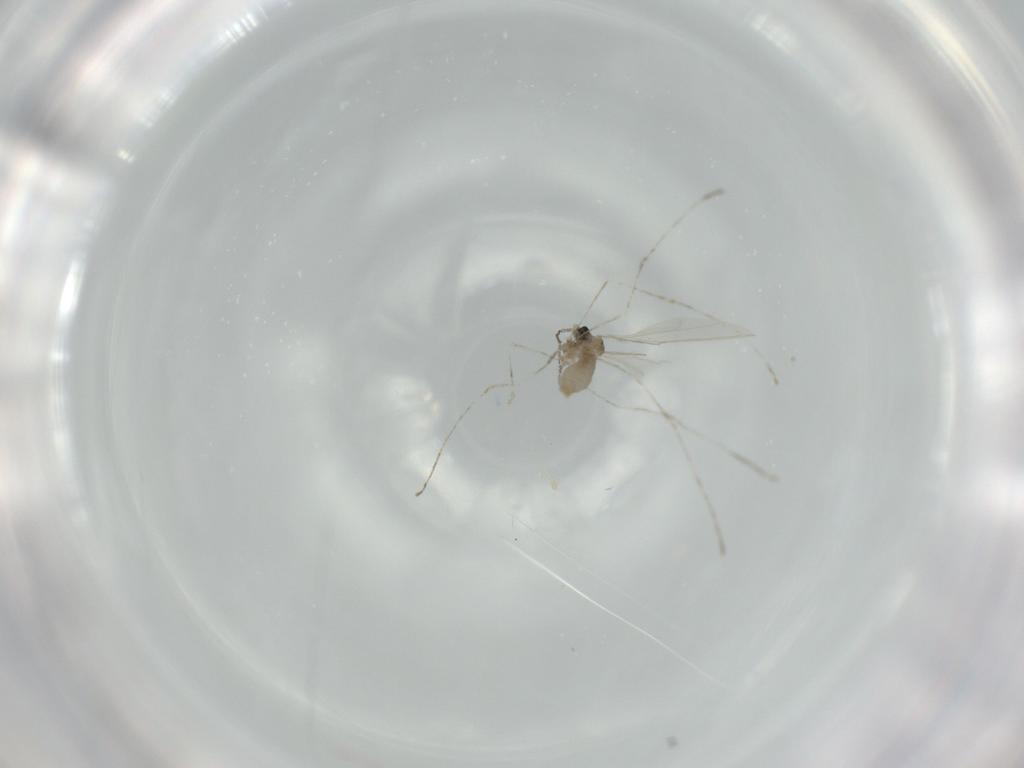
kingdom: Animalia
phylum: Arthropoda
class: Insecta
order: Diptera
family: Cecidomyiidae
